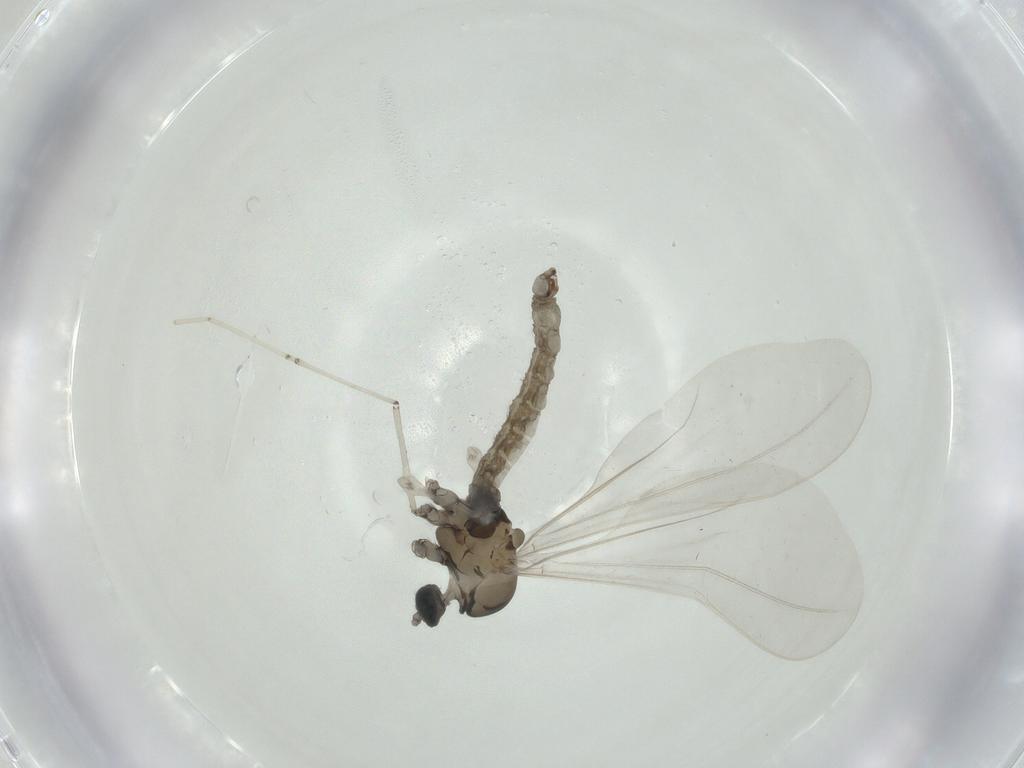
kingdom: Animalia
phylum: Arthropoda
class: Insecta
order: Diptera
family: Cecidomyiidae
